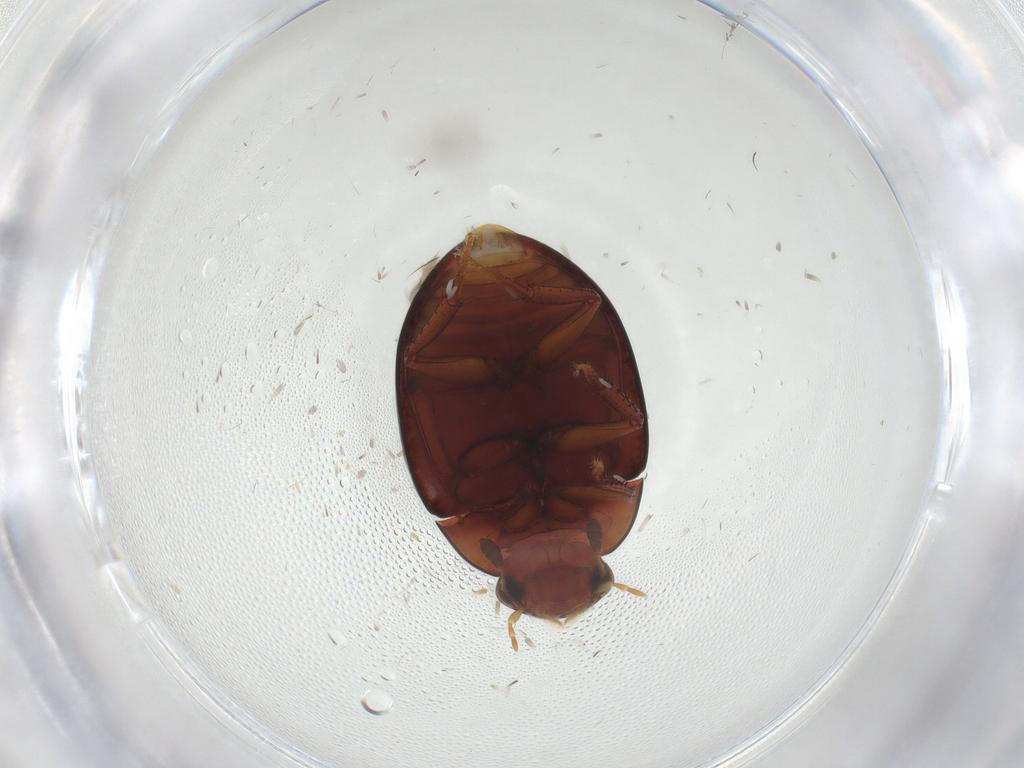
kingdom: Animalia
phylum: Arthropoda
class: Insecta
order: Coleoptera
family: Hydrophilidae
